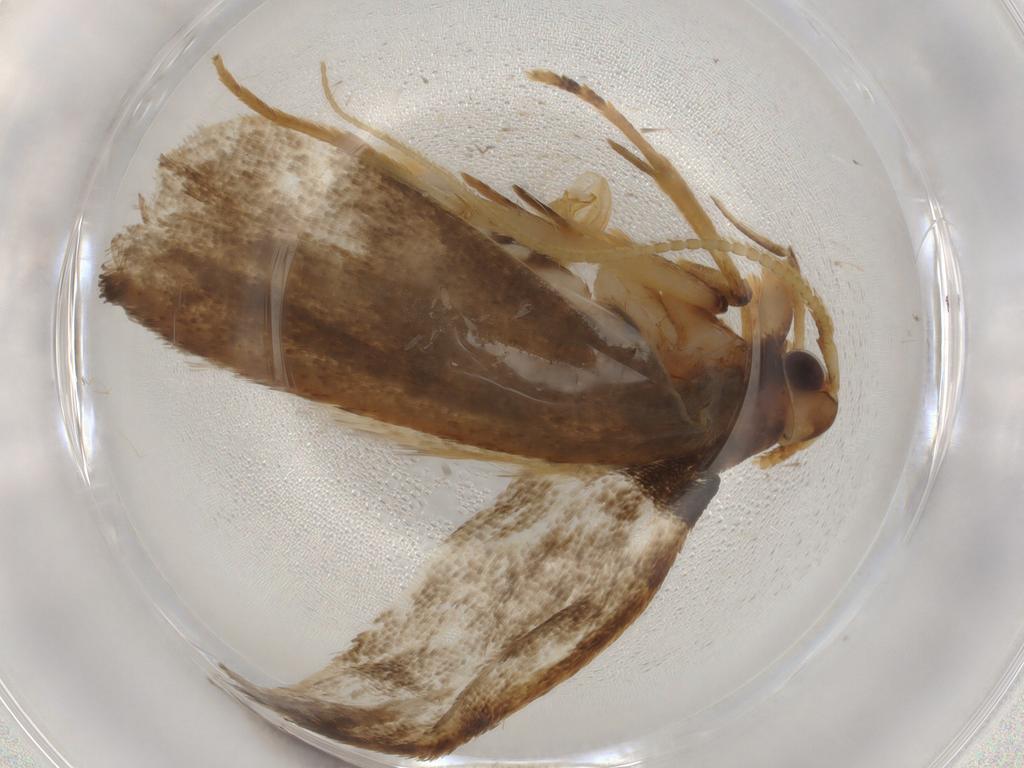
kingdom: Animalia
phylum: Arthropoda
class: Insecta
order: Lepidoptera
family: Lecithoceridae
